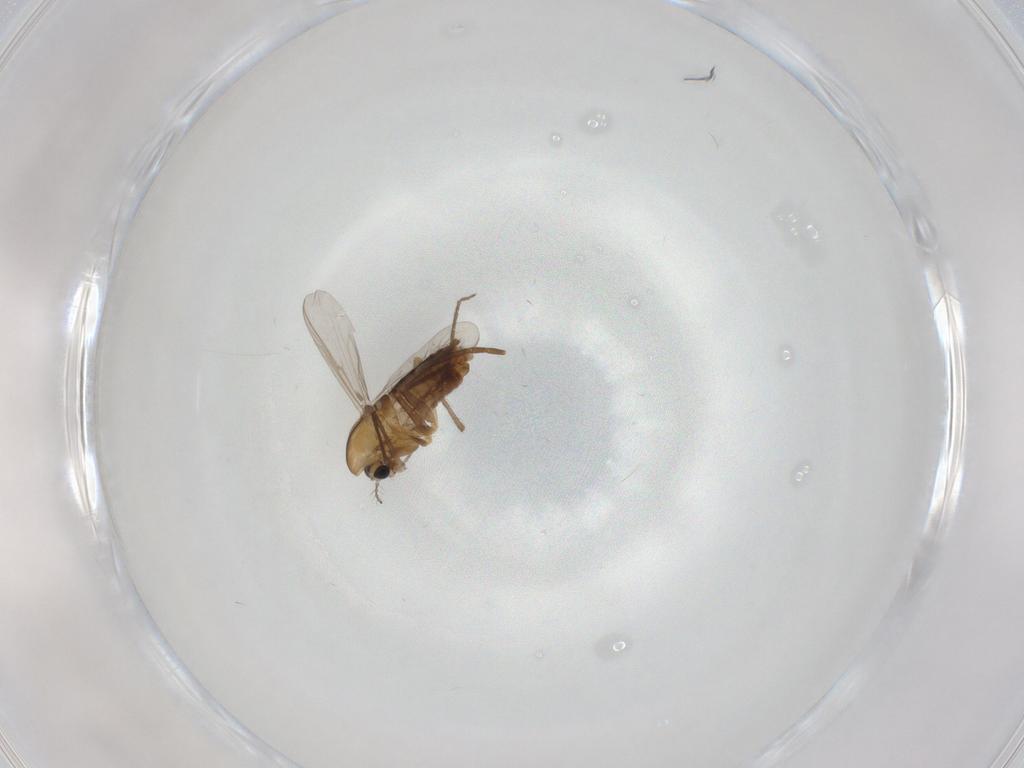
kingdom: Animalia
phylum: Arthropoda
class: Insecta
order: Diptera
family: Chironomidae
